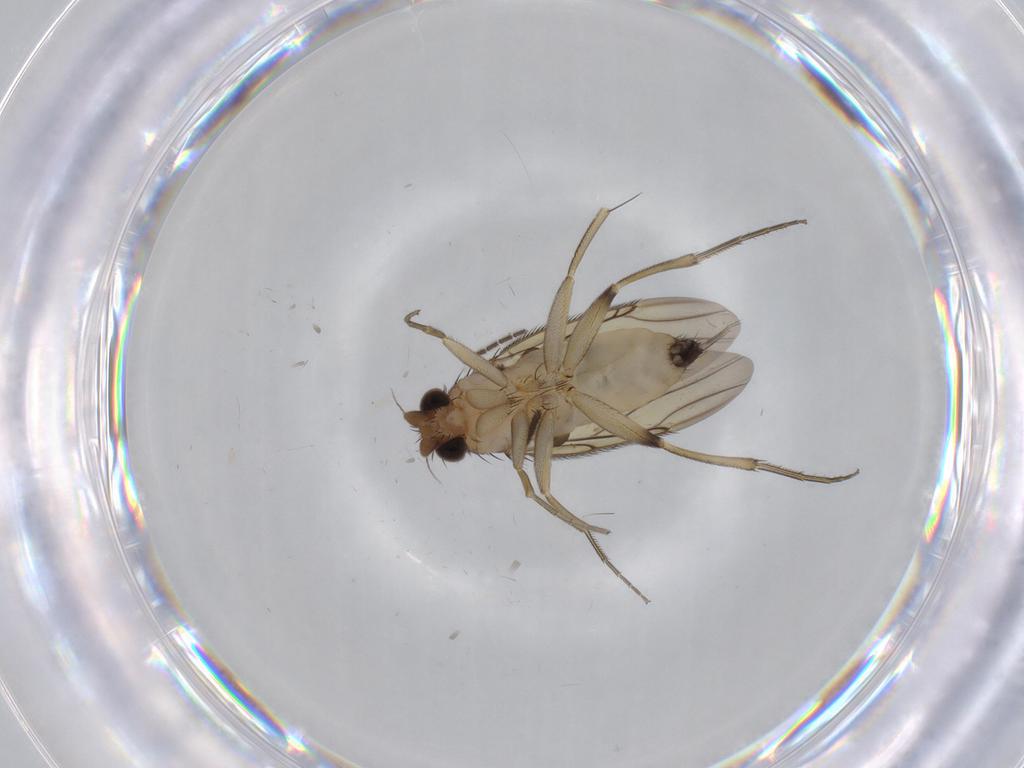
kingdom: Animalia
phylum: Arthropoda
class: Insecta
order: Diptera
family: Phoridae
